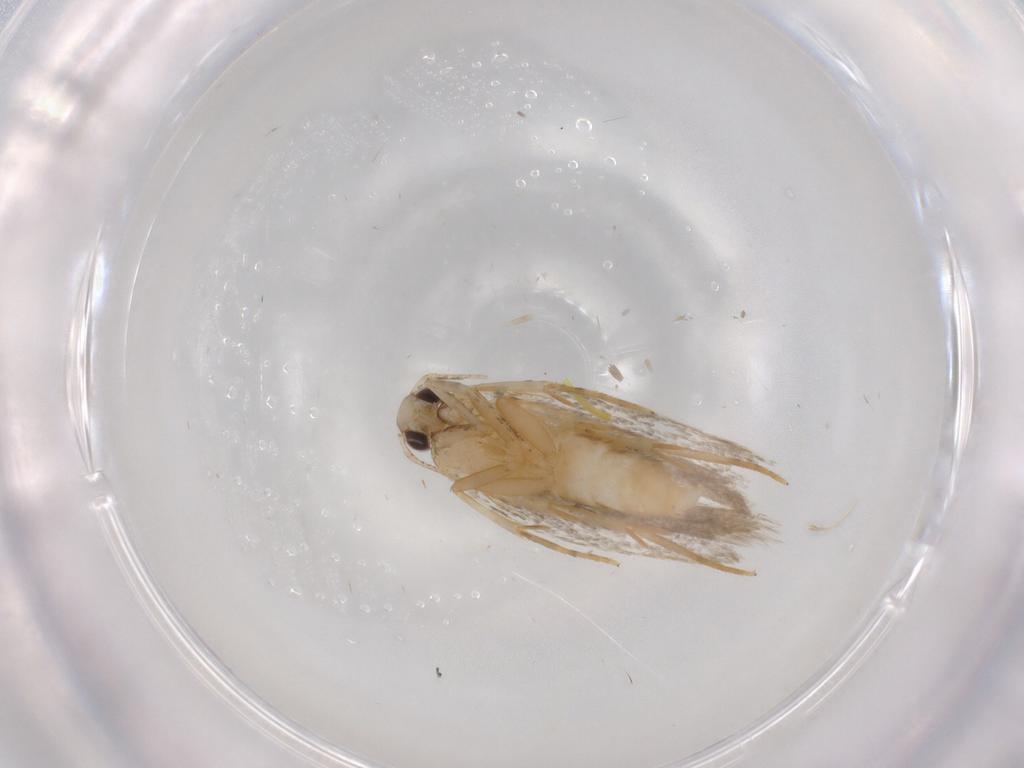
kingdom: Animalia
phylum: Arthropoda
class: Insecta
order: Lepidoptera
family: Autostichidae
